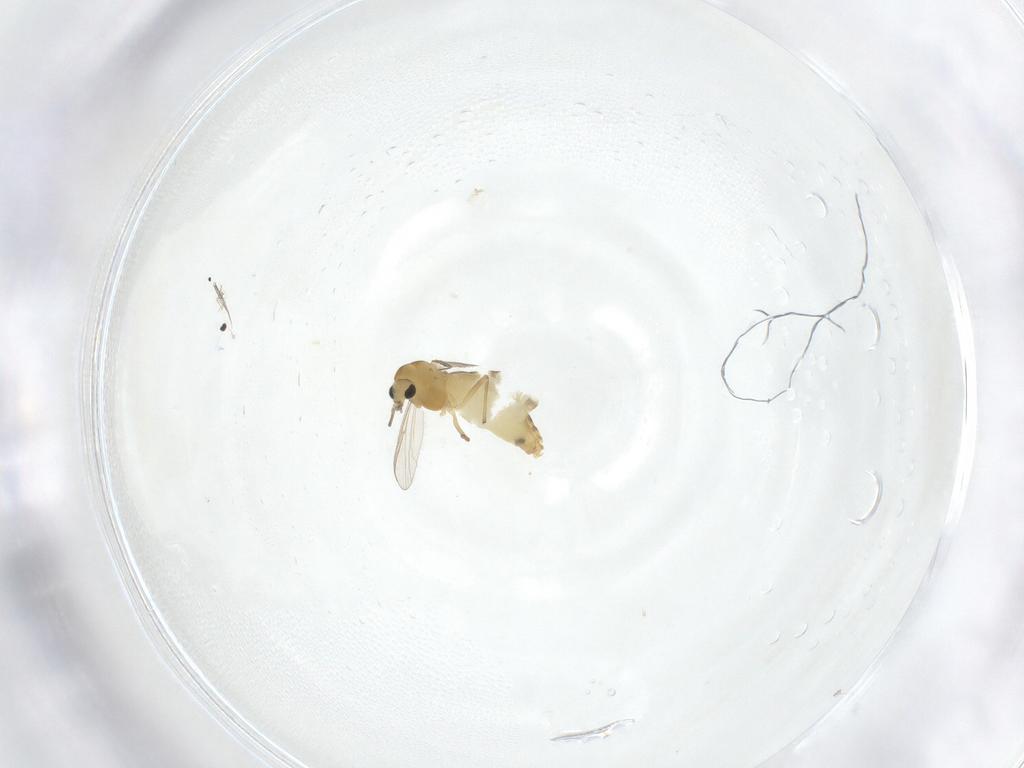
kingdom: Animalia
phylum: Arthropoda
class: Insecta
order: Diptera
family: Chironomidae
